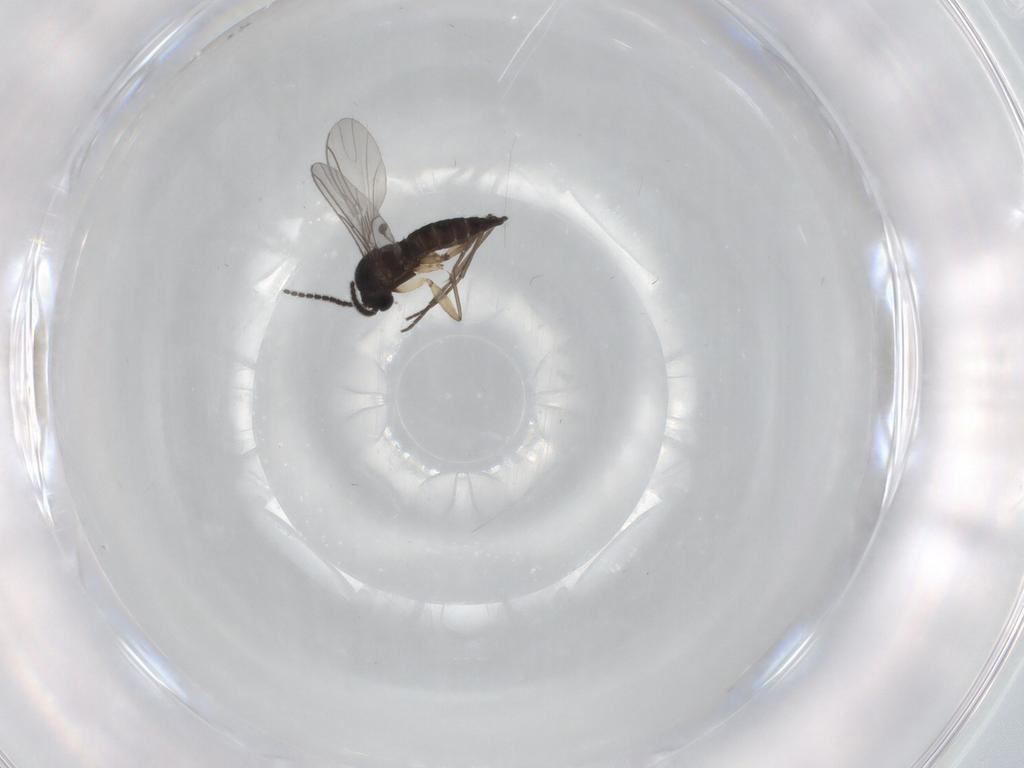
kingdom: Animalia
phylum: Arthropoda
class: Insecta
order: Diptera
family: Sciaridae
